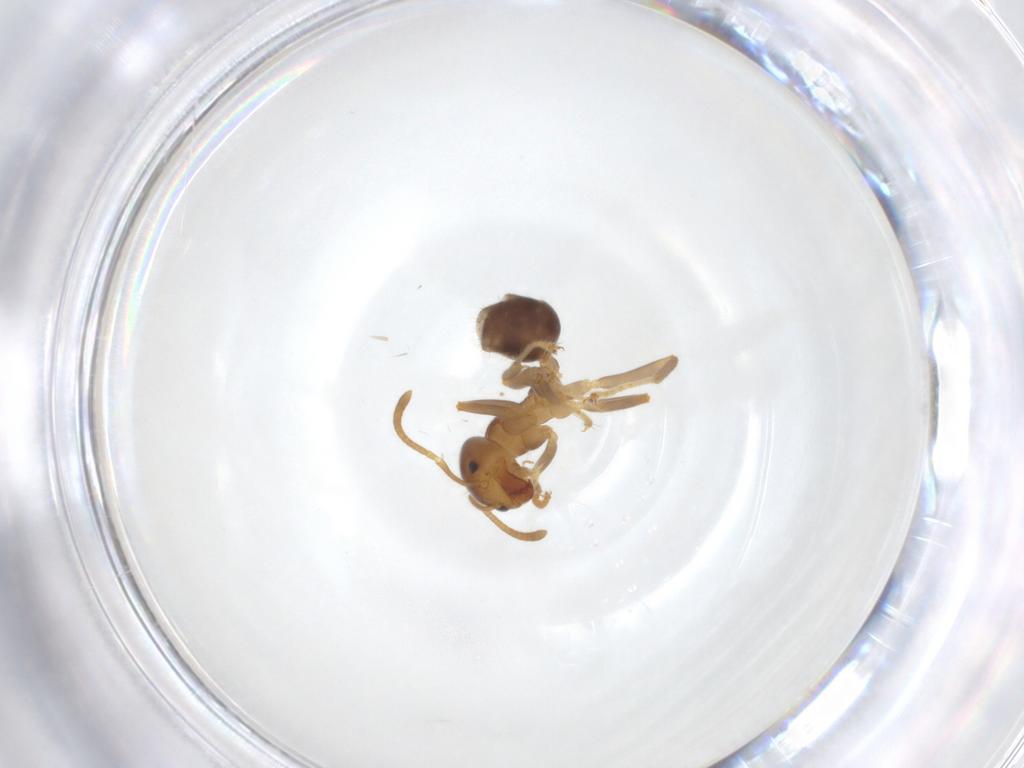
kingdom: Animalia
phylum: Arthropoda
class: Insecta
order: Hymenoptera
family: Formicidae
